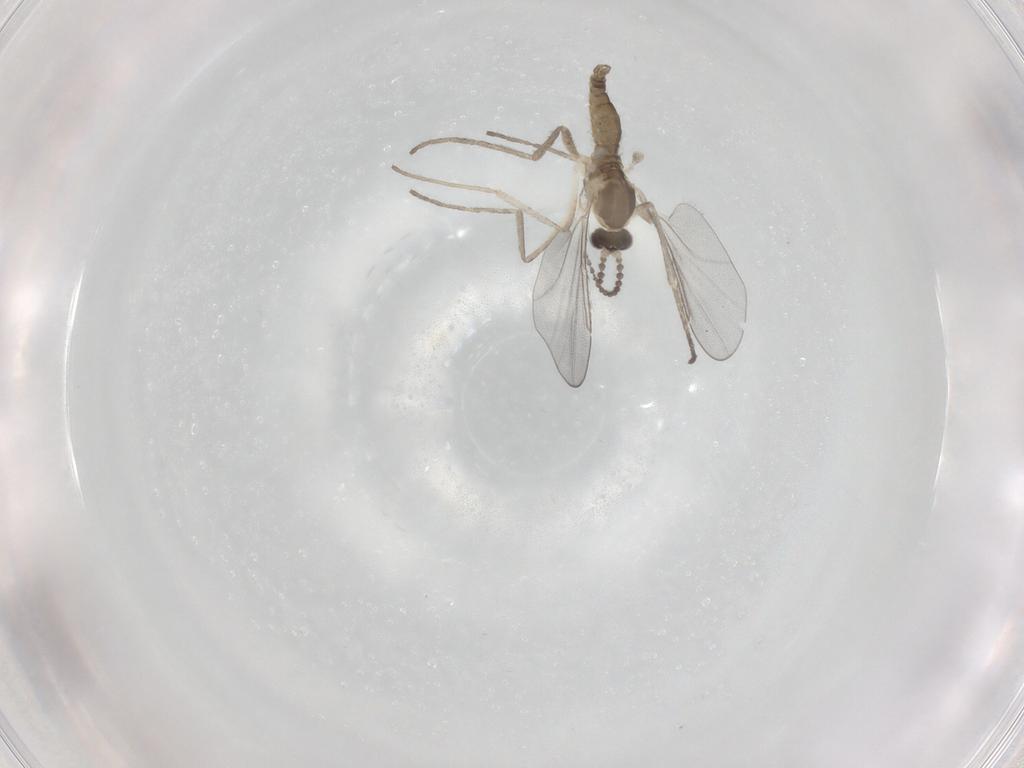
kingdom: Animalia
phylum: Arthropoda
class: Insecta
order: Diptera
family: Cecidomyiidae
